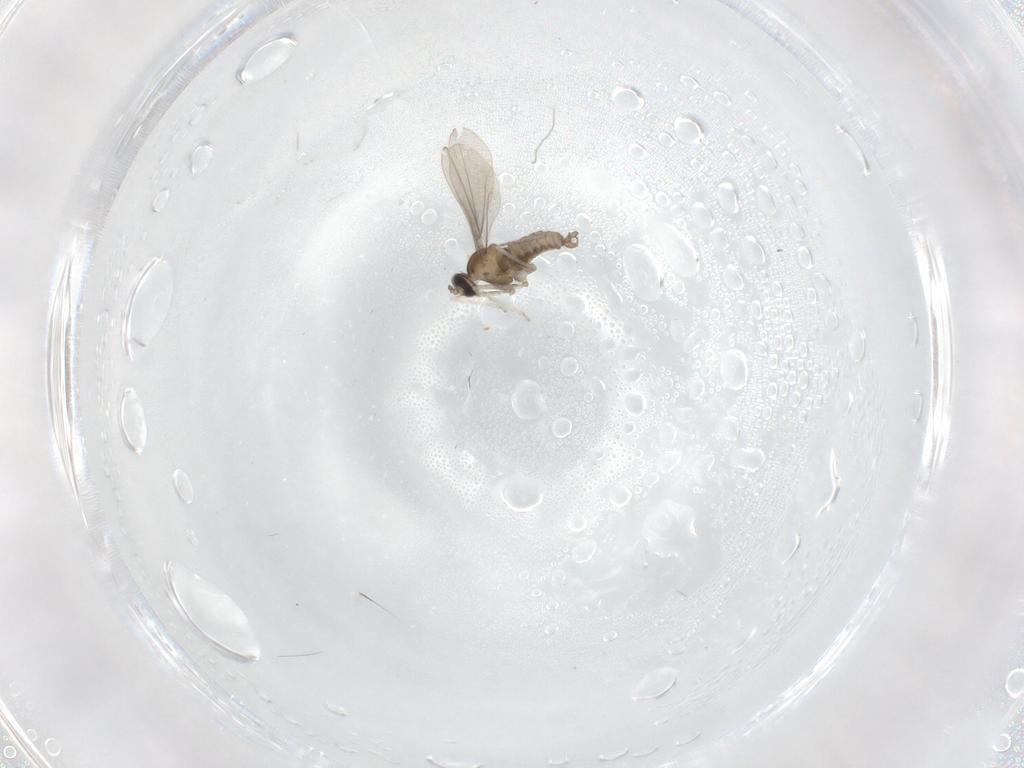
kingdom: Animalia
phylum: Arthropoda
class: Insecta
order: Diptera
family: Cecidomyiidae
